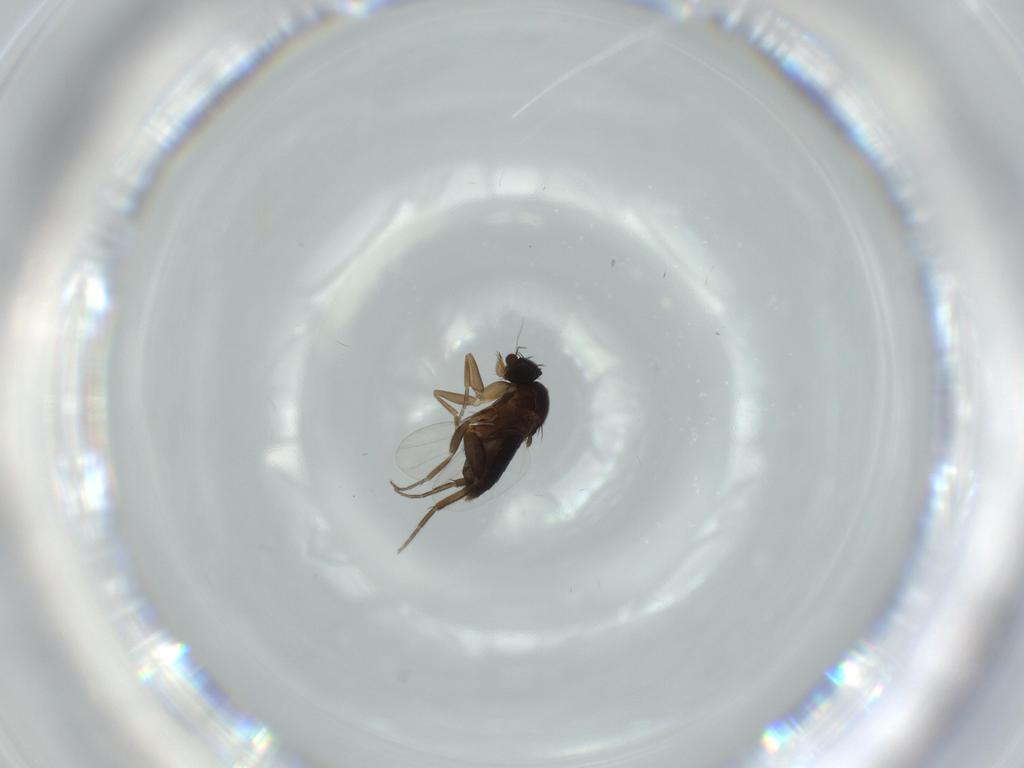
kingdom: Animalia
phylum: Arthropoda
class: Insecta
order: Diptera
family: Phoridae
